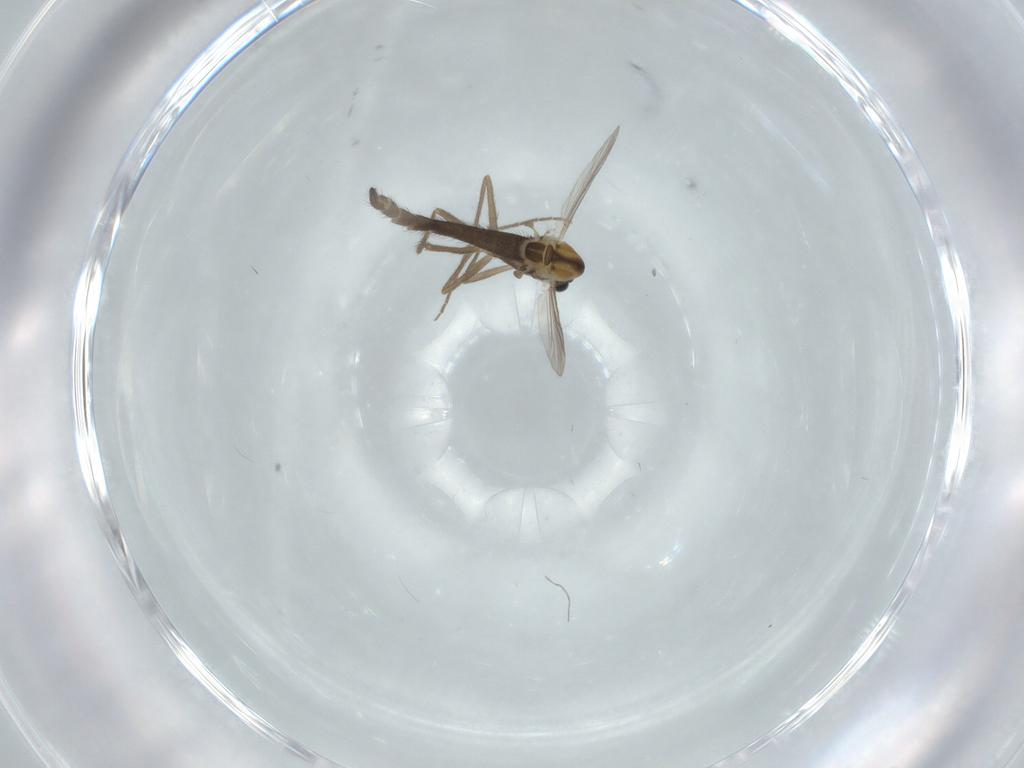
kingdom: Animalia
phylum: Arthropoda
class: Insecta
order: Diptera
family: Chironomidae
